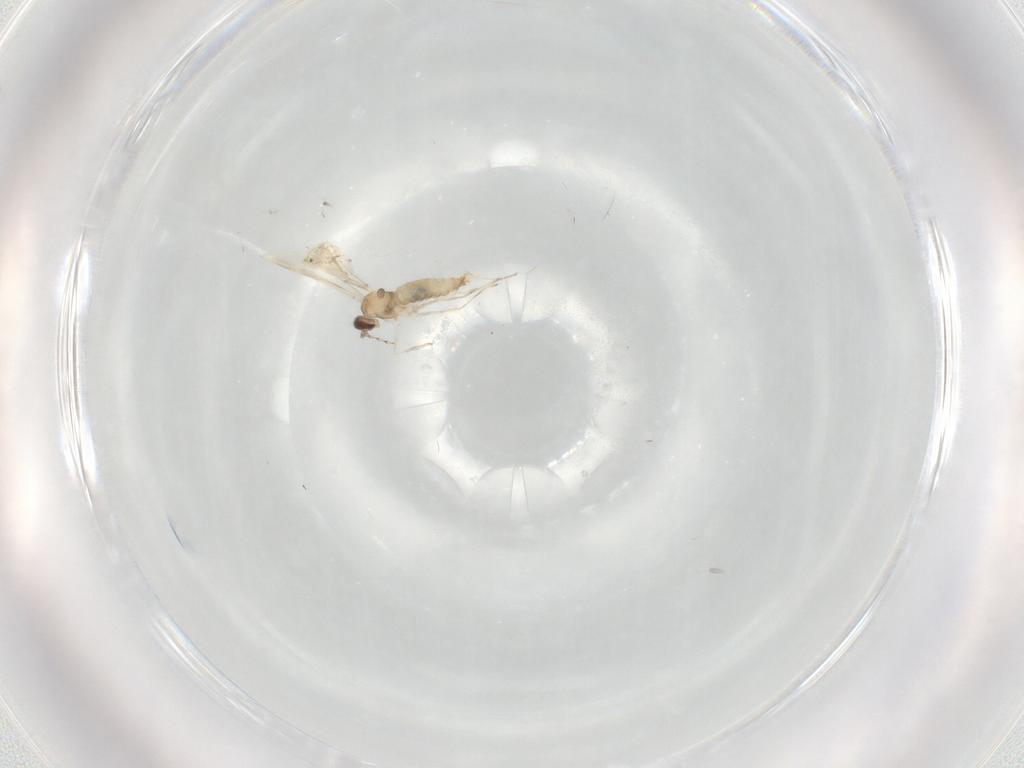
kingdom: Animalia
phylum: Arthropoda
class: Insecta
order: Diptera
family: Cecidomyiidae
